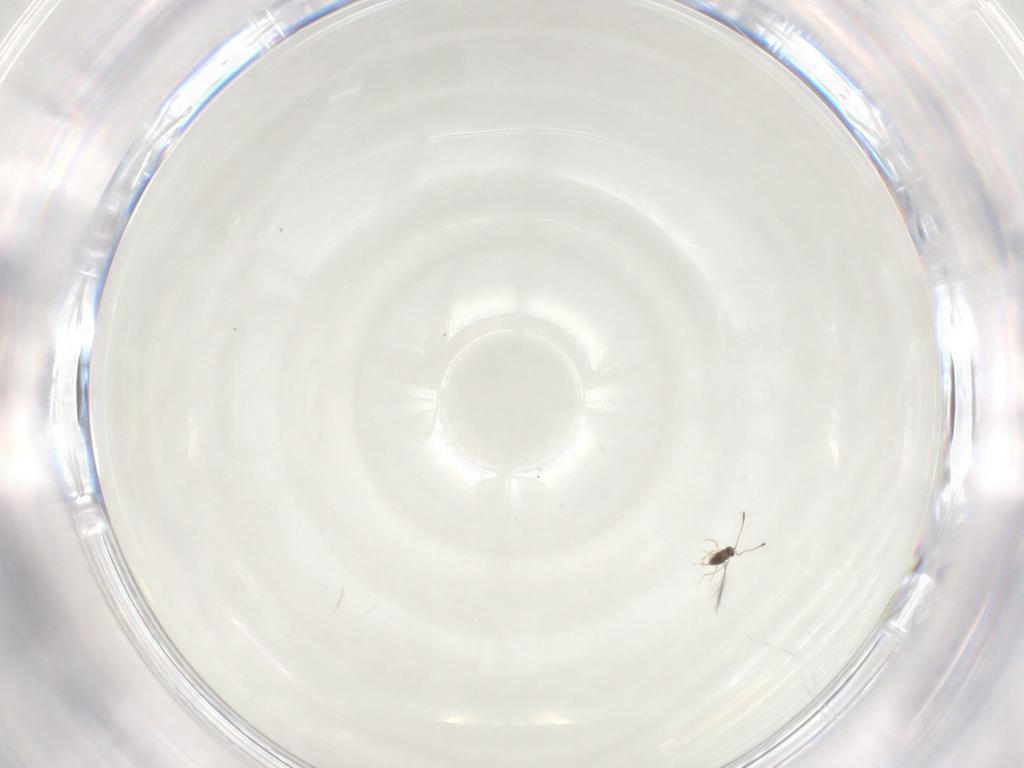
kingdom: Animalia
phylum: Arthropoda
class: Insecta
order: Hymenoptera
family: Mymaridae
